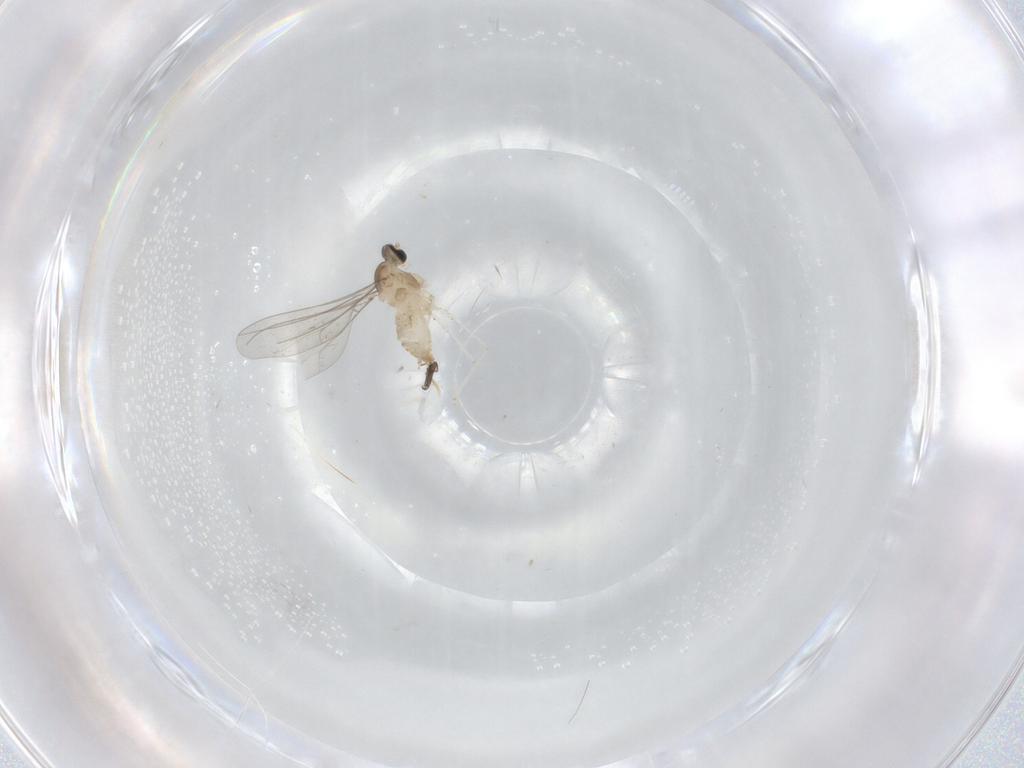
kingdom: Animalia
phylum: Arthropoda
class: Insecta
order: Diptera
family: Cecidomyiidae
